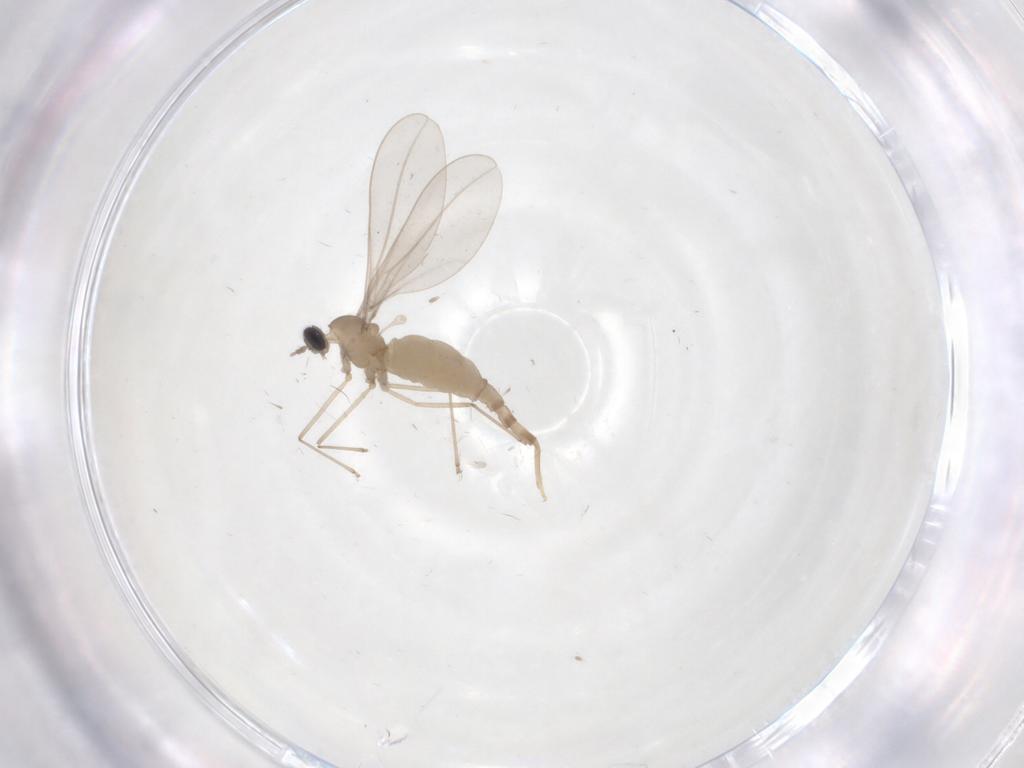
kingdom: Animalia
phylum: Arthropoda
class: Insecta
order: Diptera
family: Cecidomyiidae
